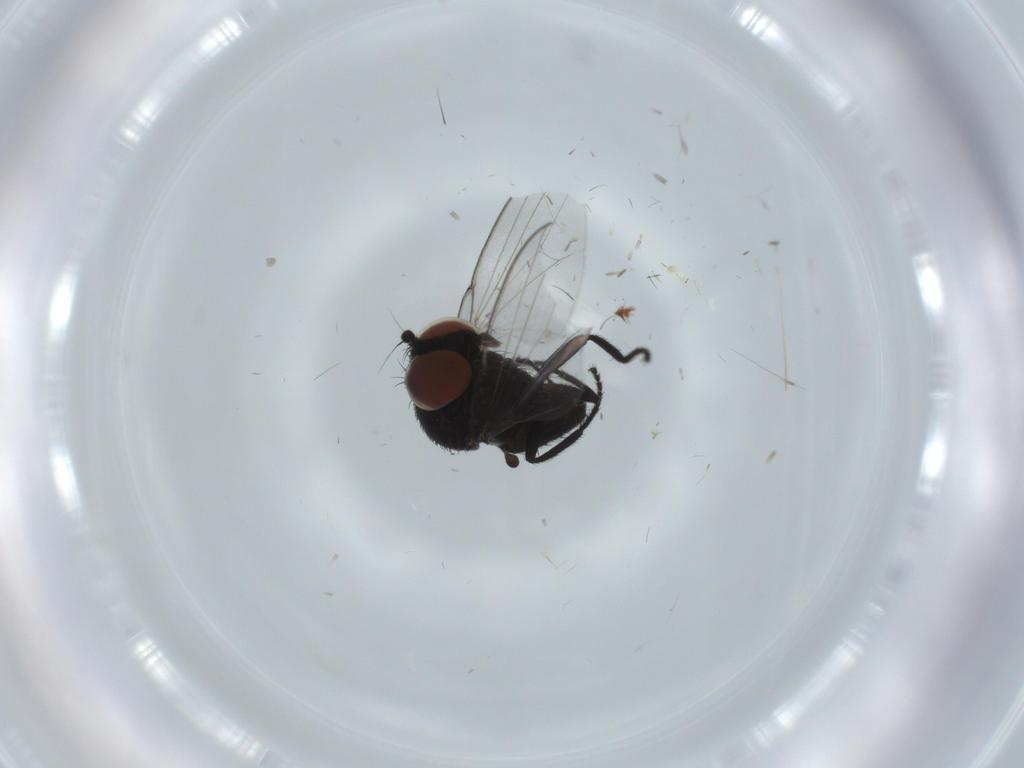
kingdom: Animalia
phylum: Arthropoda
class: Insecta
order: Diptera
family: Milichiidae
